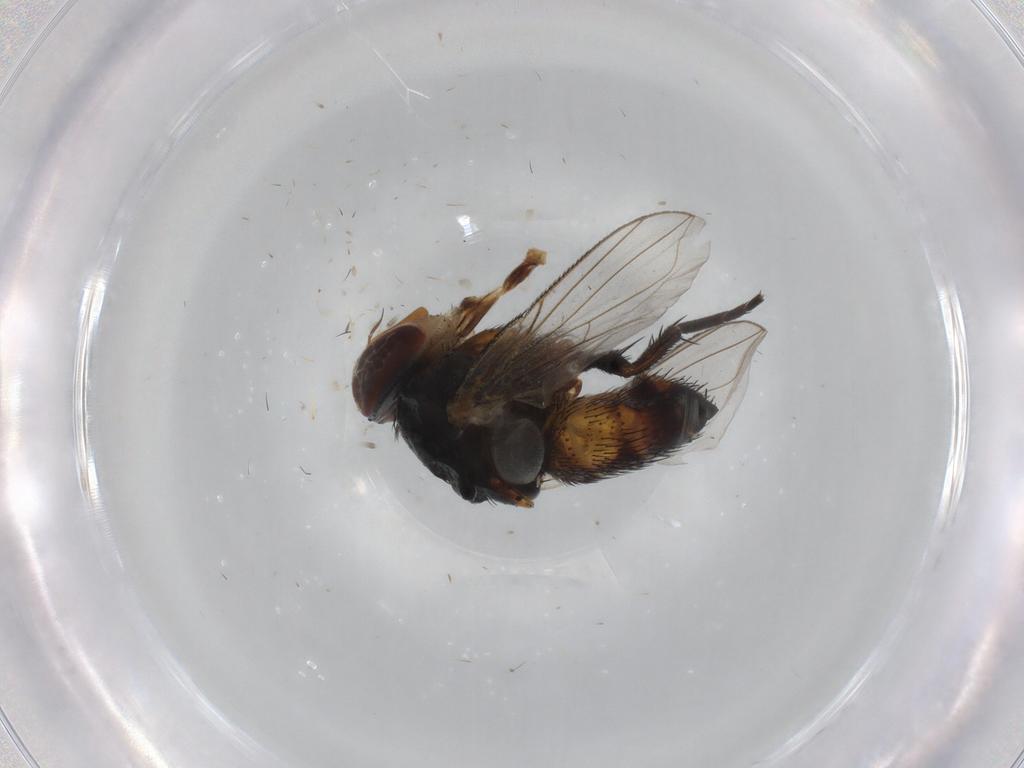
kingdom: Animalia
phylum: Arthropoda
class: Insecta
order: Diptera
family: Cecidomyiidae
